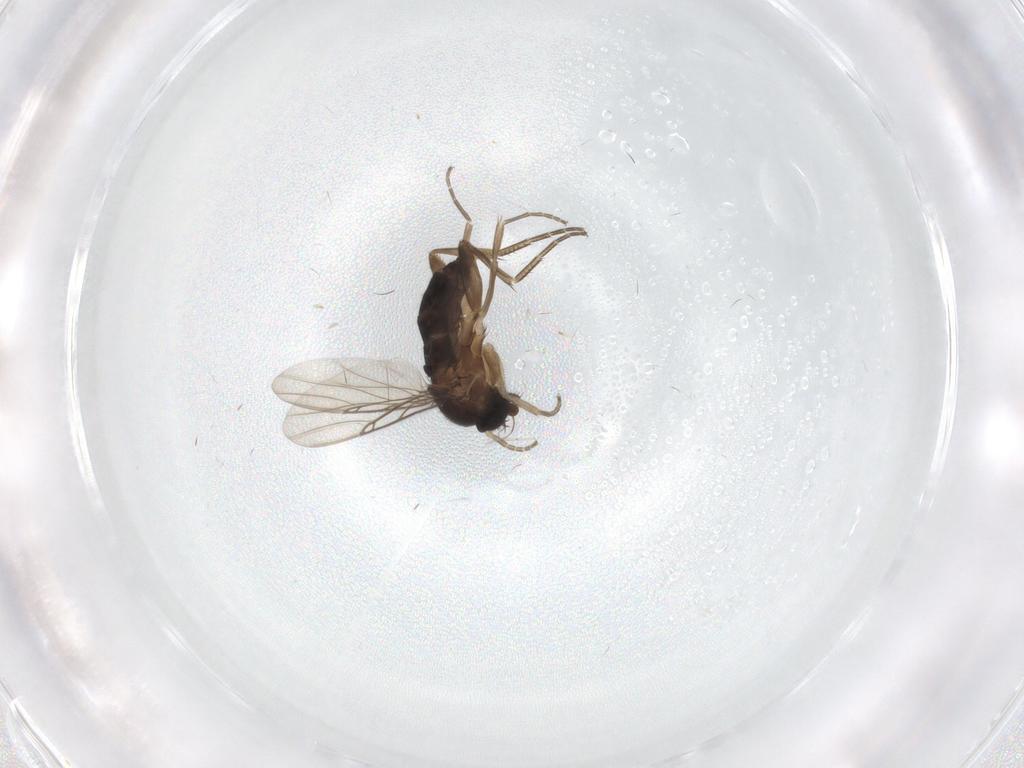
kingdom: Animalia
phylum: Arthropoda
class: Insecta
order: Diptera
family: Phoridae
